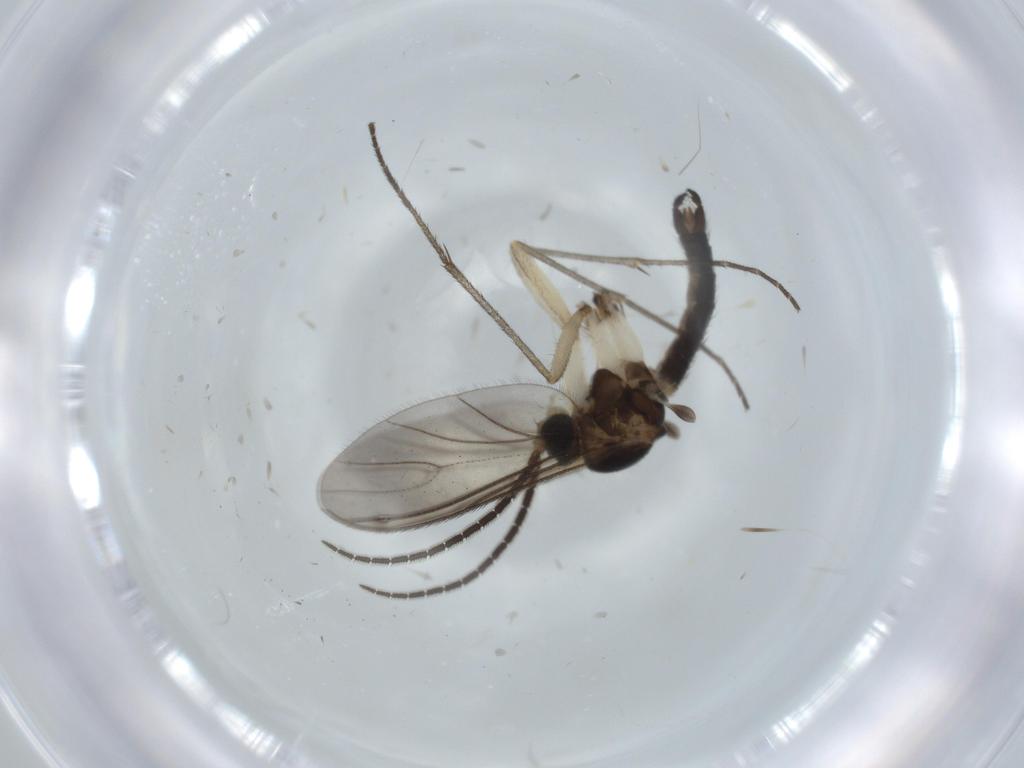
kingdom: Animalia
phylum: Arthropoda
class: Insecta
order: Diptera
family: Sciaridae
